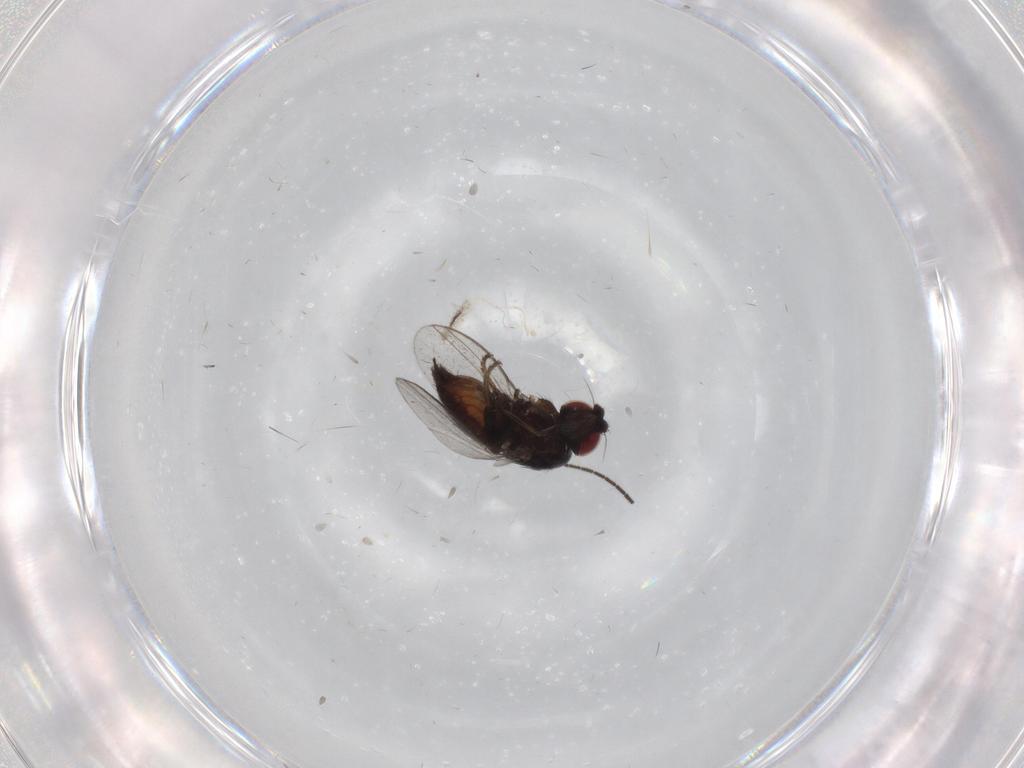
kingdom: Animalia
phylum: Arthropoda
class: Insecta
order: Diptera
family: Milichiidae
